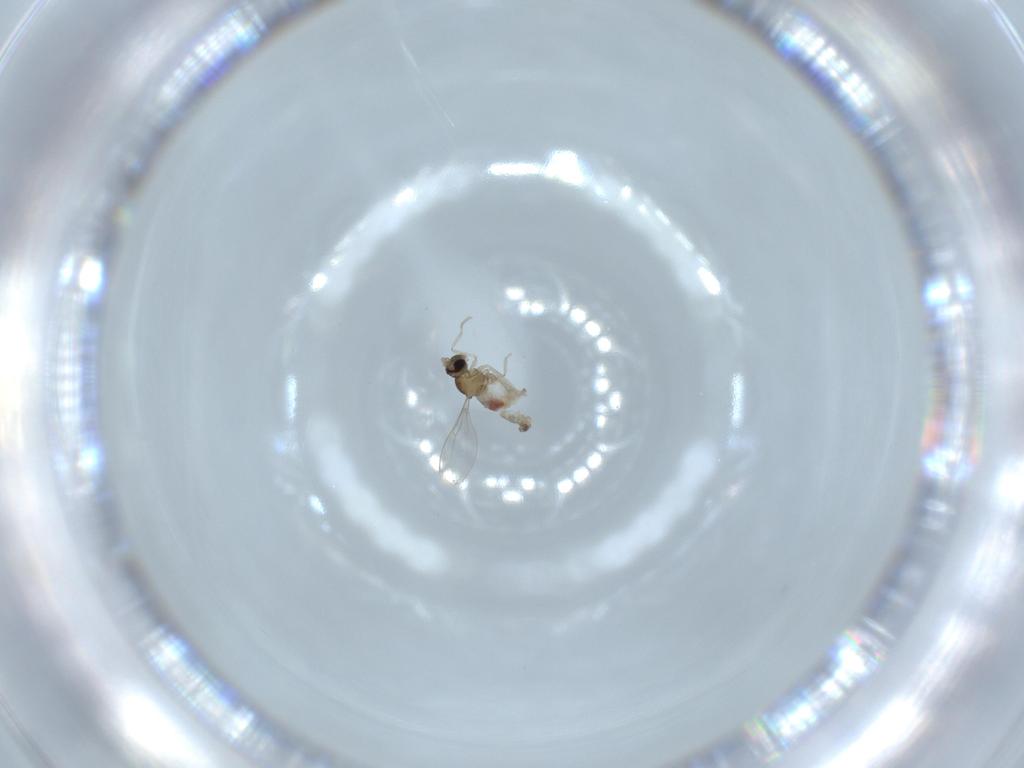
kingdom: Animalia
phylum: Arthropoda
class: Insecta
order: Diptera
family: Cecidomyiidae
